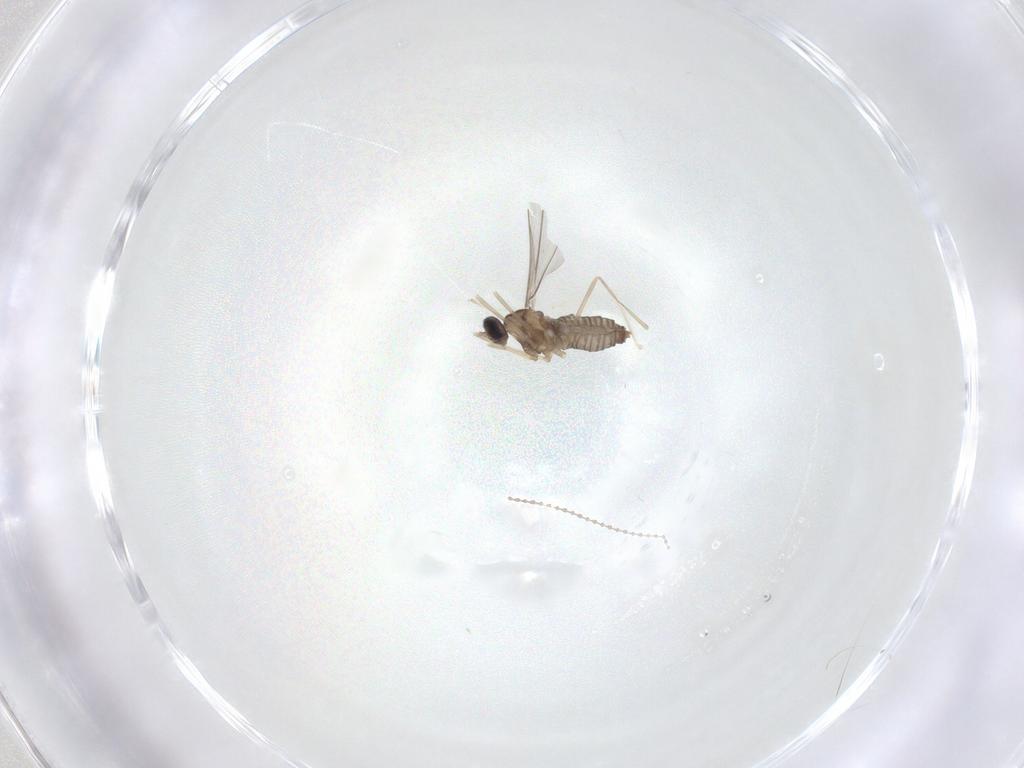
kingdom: Animalia
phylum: Arthropoda
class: Insecta
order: Diptera
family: Cecidomyiidae
